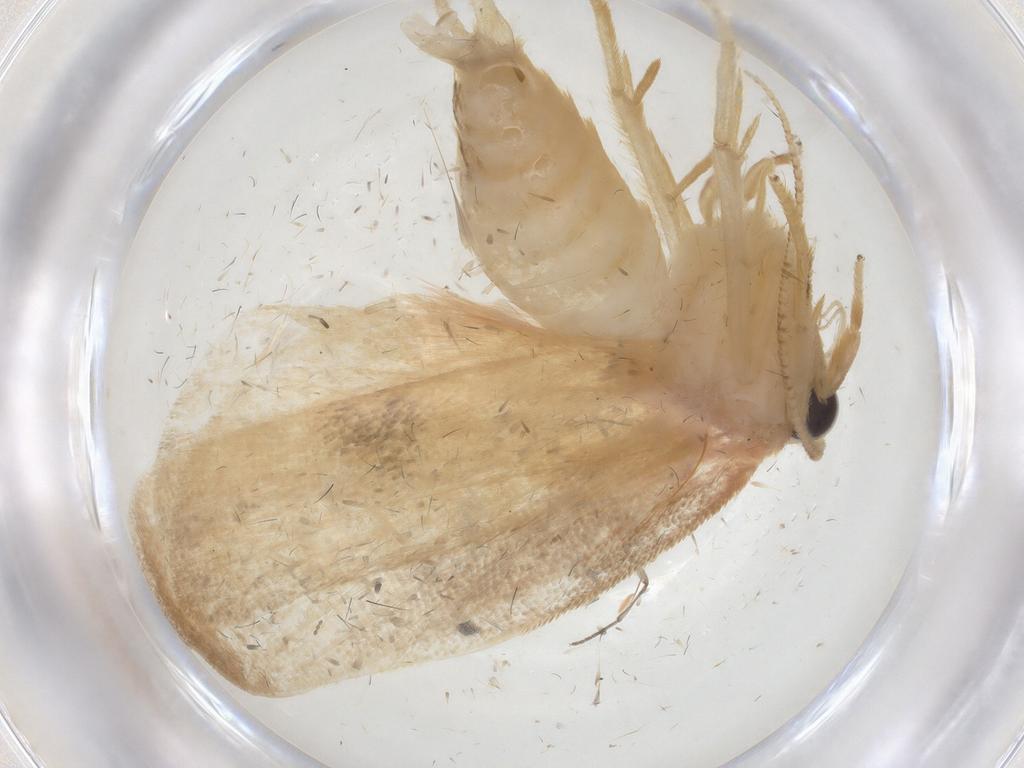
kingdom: Animalia
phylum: Arthropoda
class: Insecta
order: Lepidoptera
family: Depressariidae
